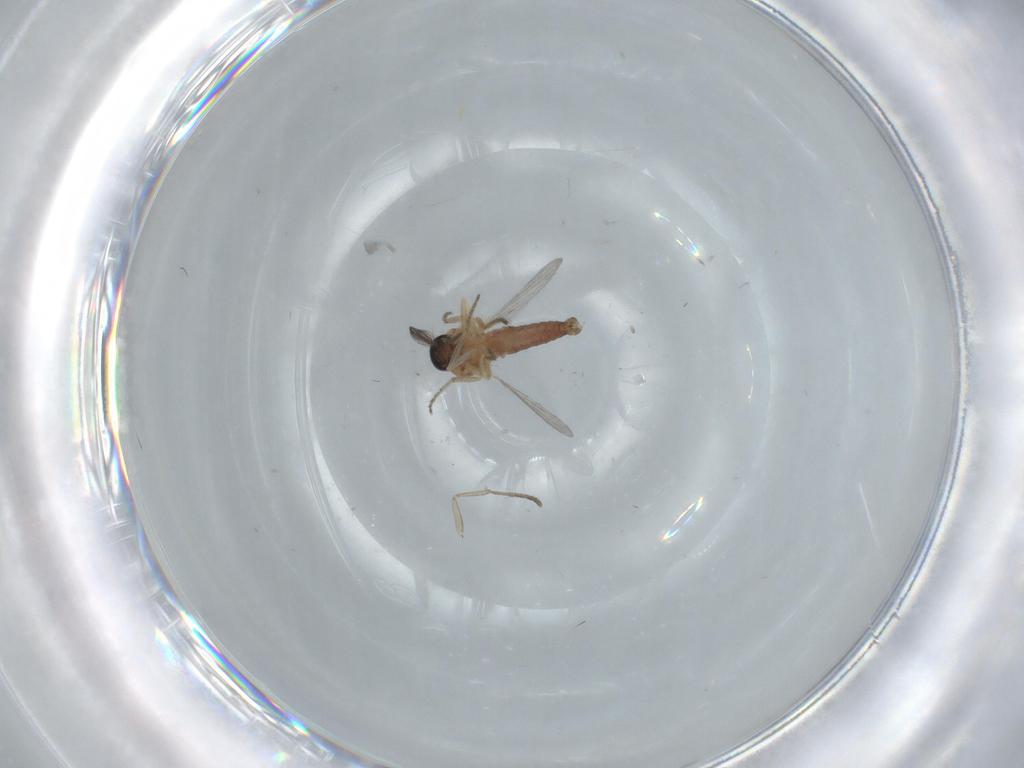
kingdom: Animalia
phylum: Arthropoda
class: Insecta
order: Diptera
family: Ceratopogonidae
